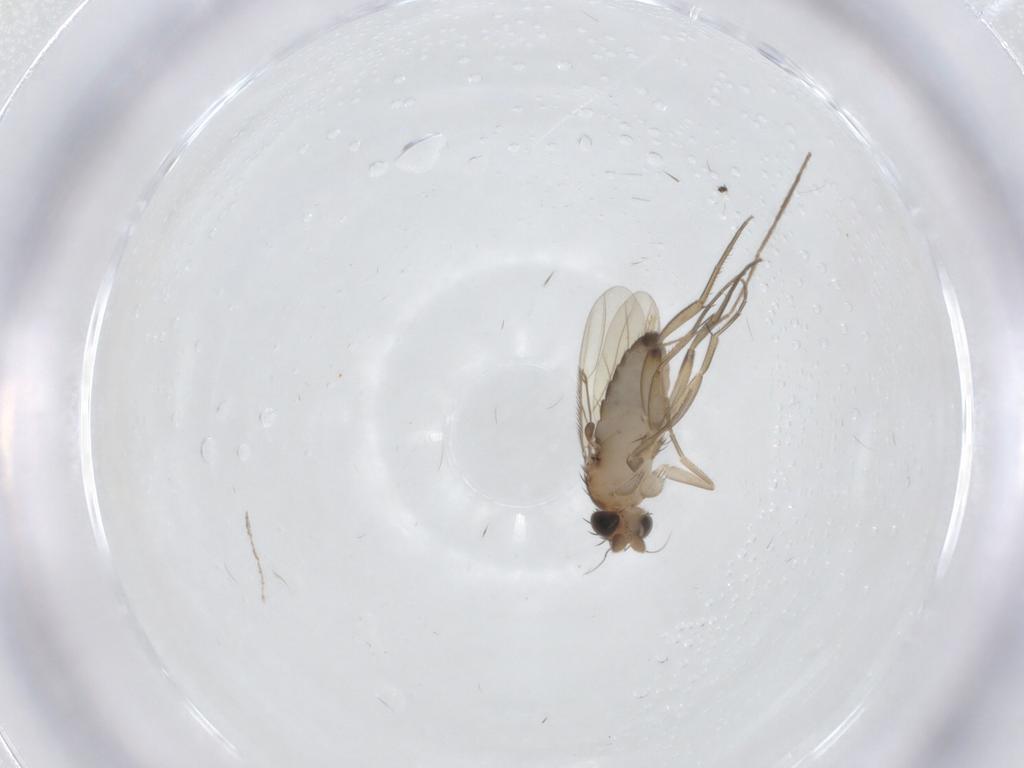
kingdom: Animalia
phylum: Arthropoda
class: Insecta
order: Diptera
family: Phoridae
